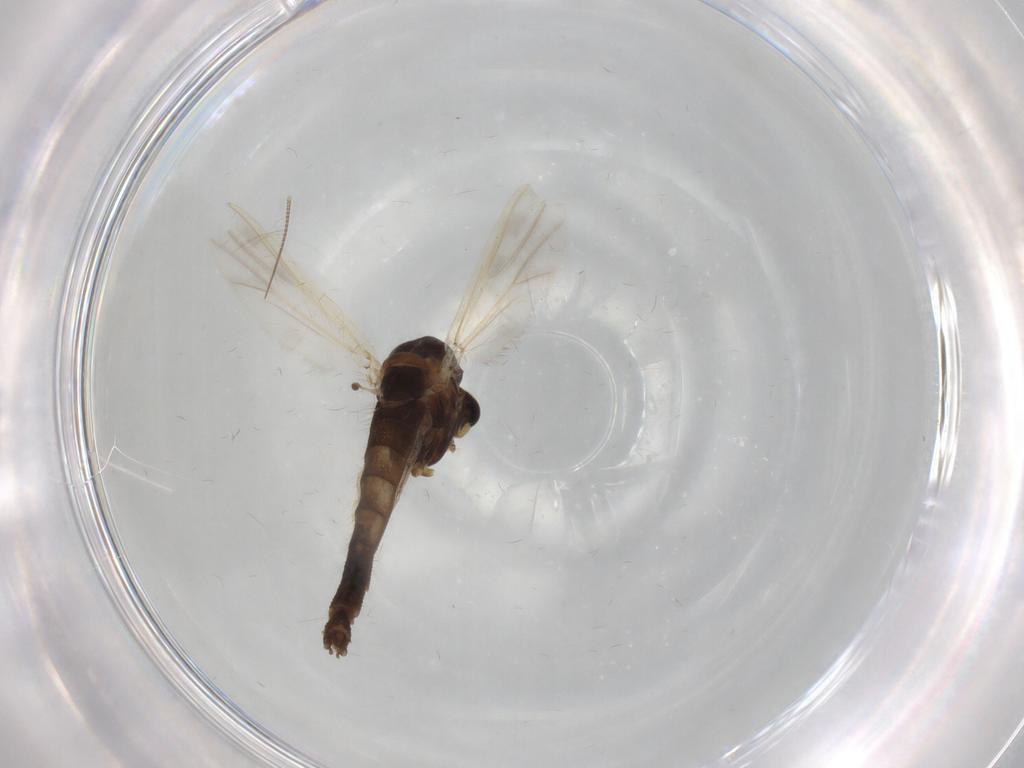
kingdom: Animalia
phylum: Arthropoda
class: Insecta
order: Diptera
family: Chironomidae
